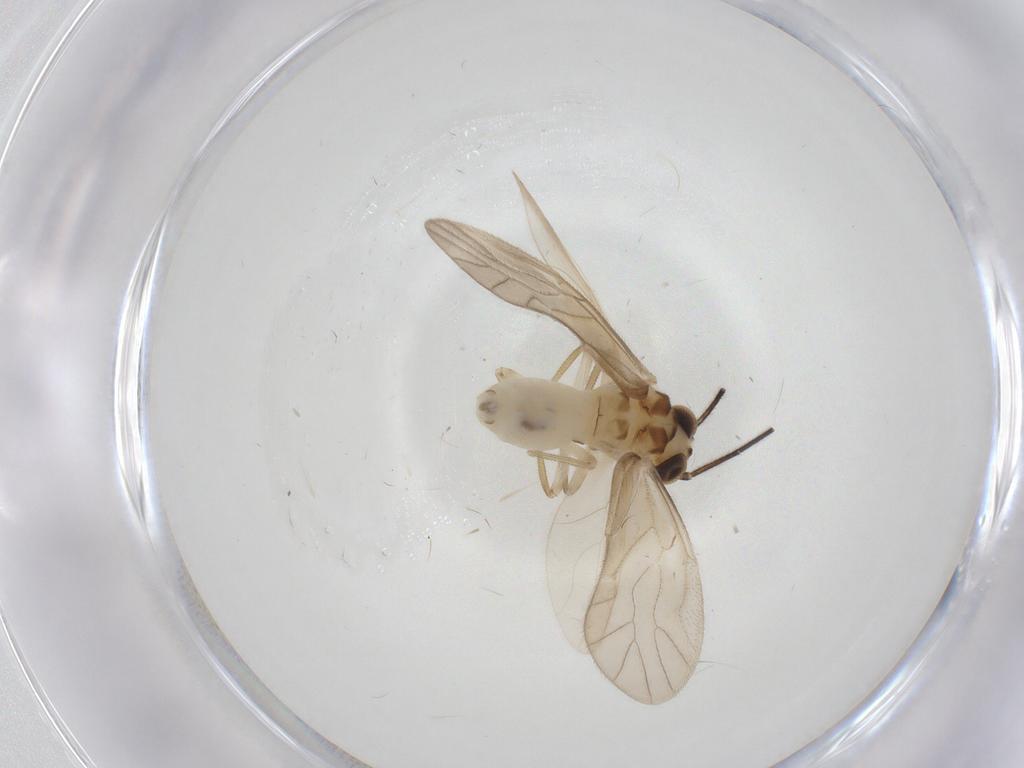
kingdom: Animalia
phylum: Arthropoda
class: Insecta
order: Psocodea
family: Caeciliusidae
